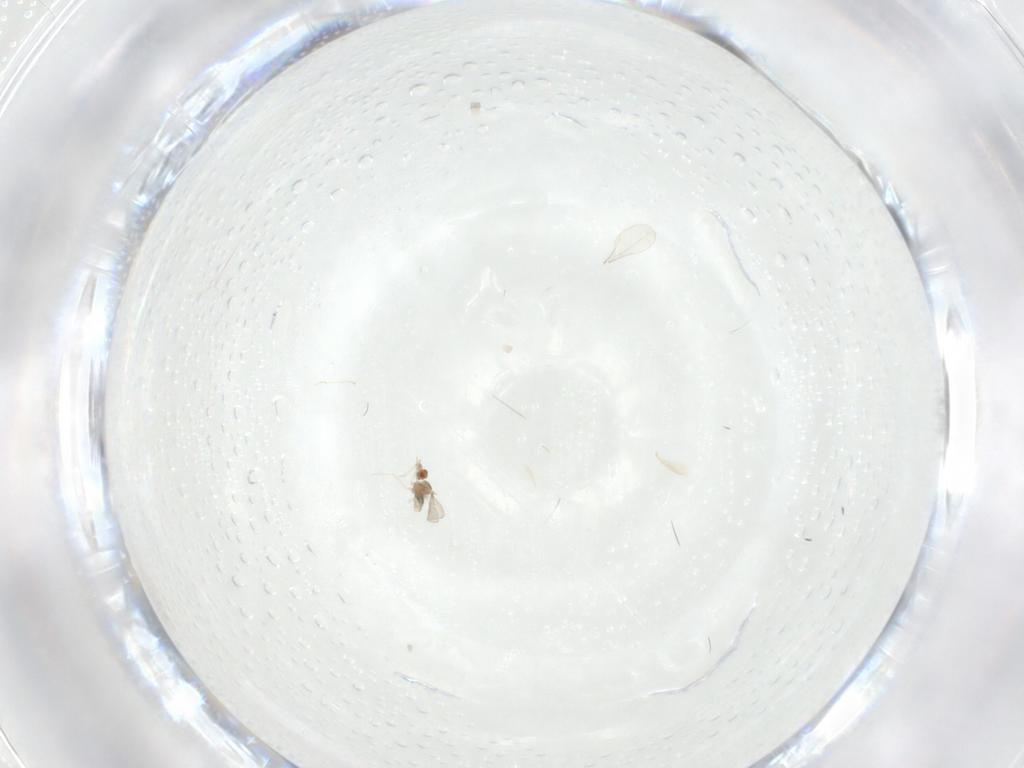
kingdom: Animalia
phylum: Arthropoda
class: Insecta
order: Diptera
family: Cecidomyiidae
